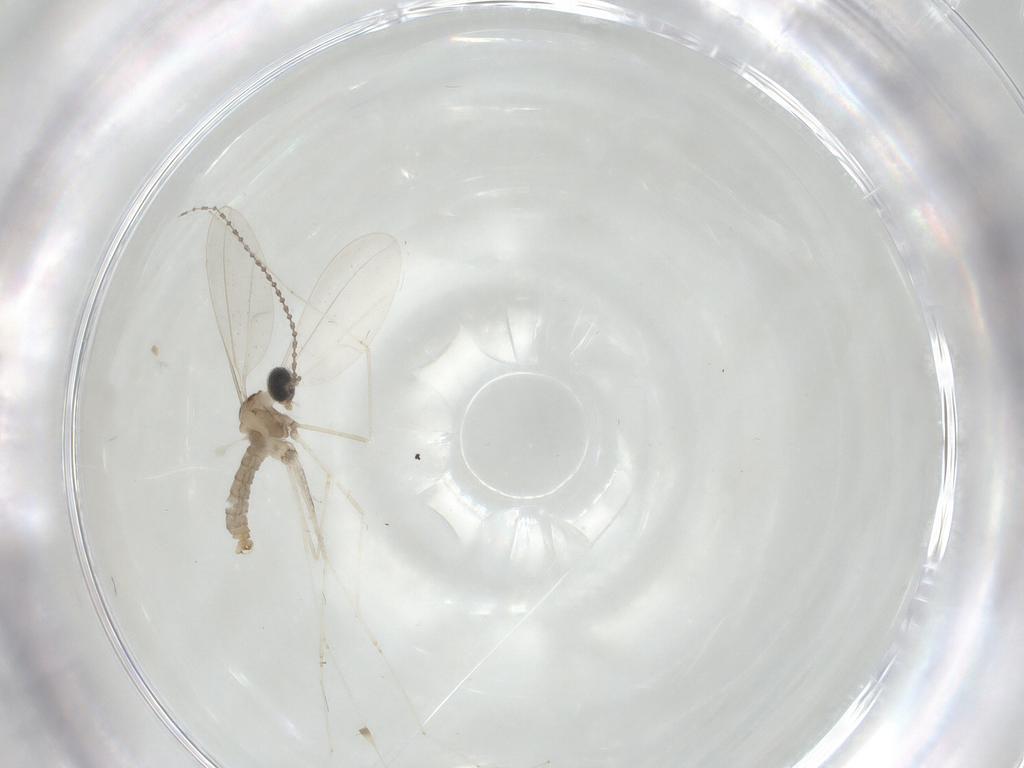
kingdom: Animalia
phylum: Arthropoda
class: Insecta
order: Diptera
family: Cecidomyiidae
